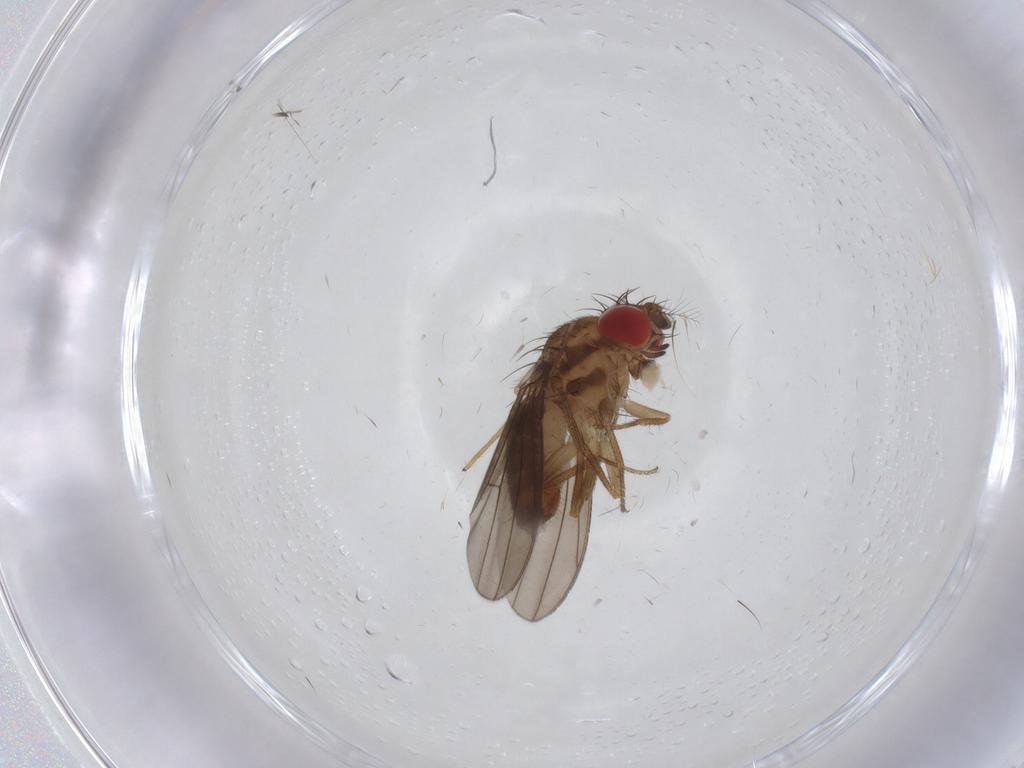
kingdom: Animalia
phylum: Arthropoda
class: Insecta
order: Diptera
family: Drosophilidae
